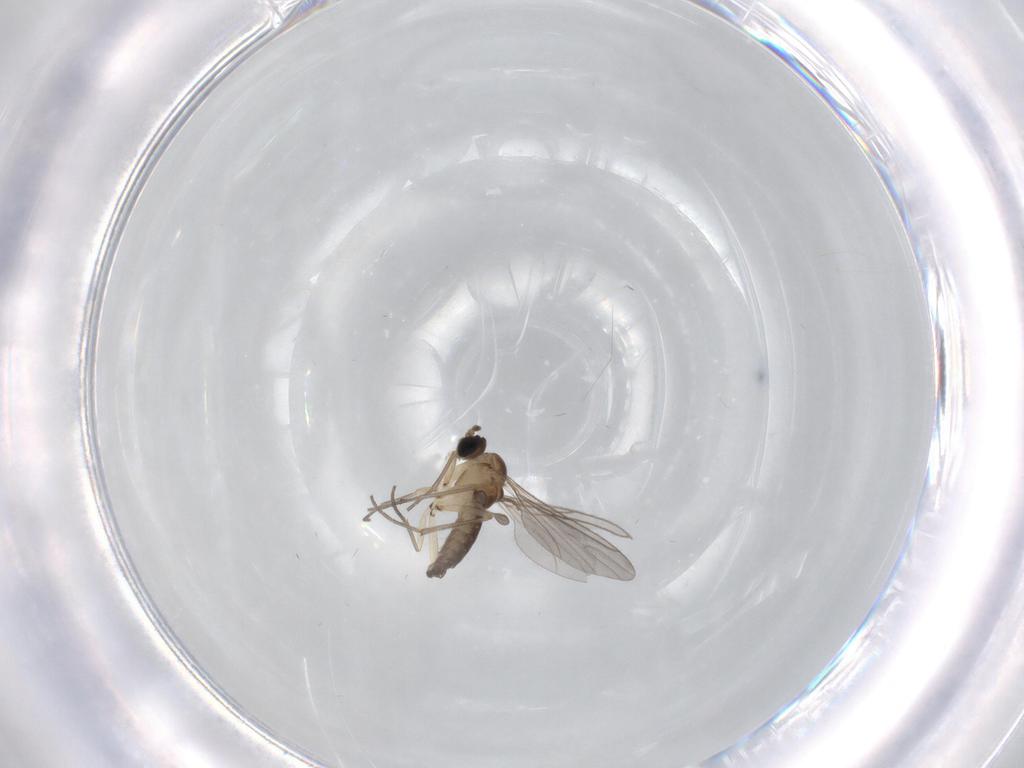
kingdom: Animalia
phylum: Arthropoda
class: Insecta
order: Diptera
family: Sciaridae
